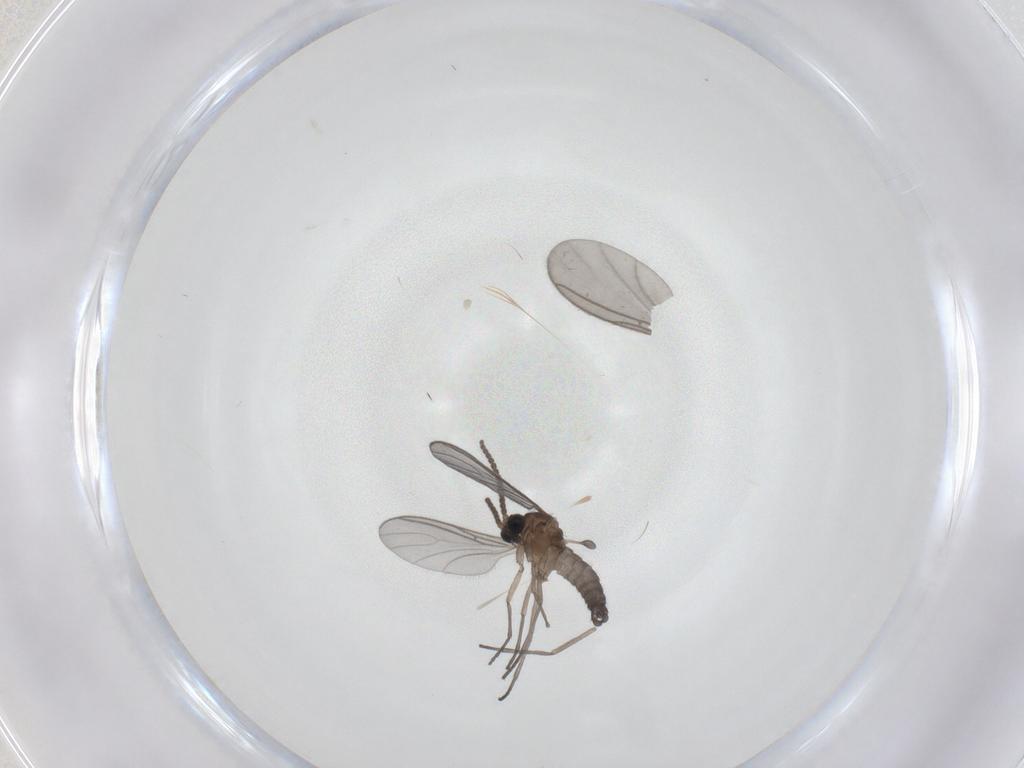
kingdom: Animalia
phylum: Arthropoda
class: Insecta
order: Diptera
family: Sciaridae
